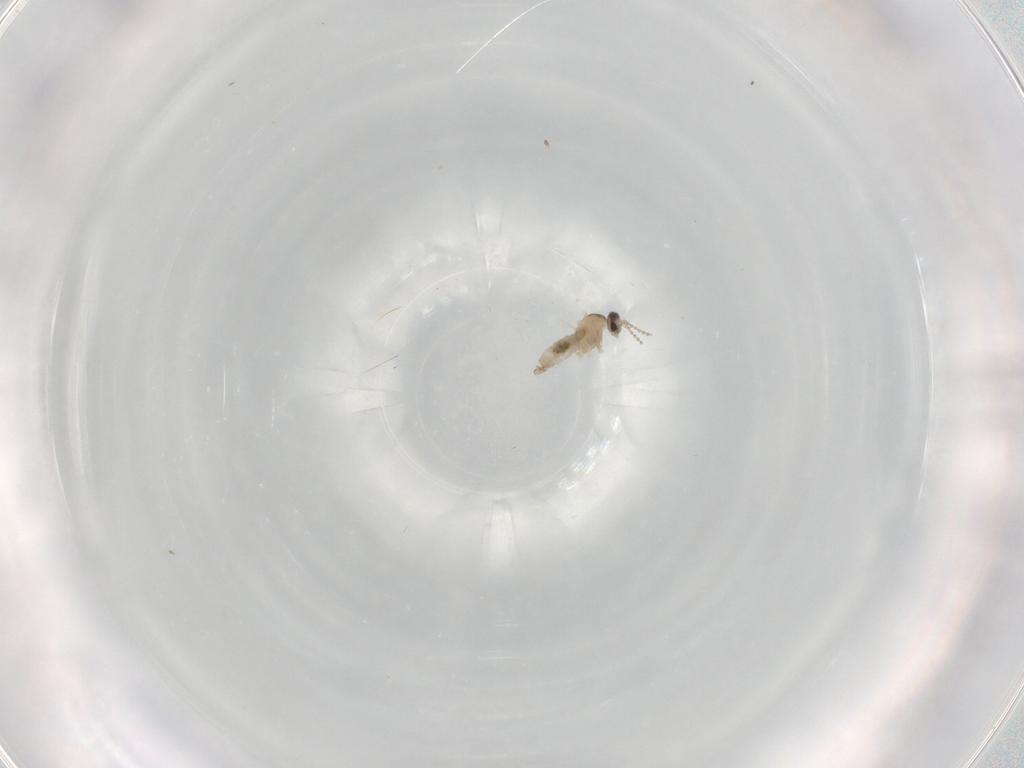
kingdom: Animalia
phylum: Arthropoda
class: Insecta
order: Diptera
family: Cecidomyiidae
